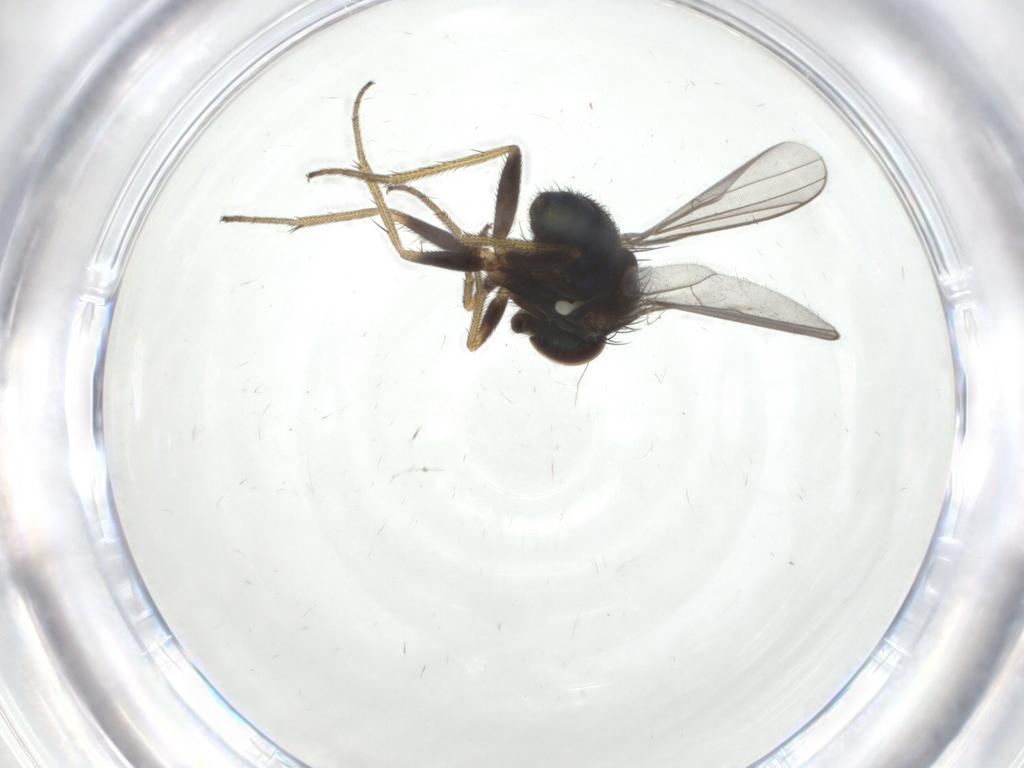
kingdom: Animalia
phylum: Arthropoda
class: Insecta
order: Diptera
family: Dolichopodidae
